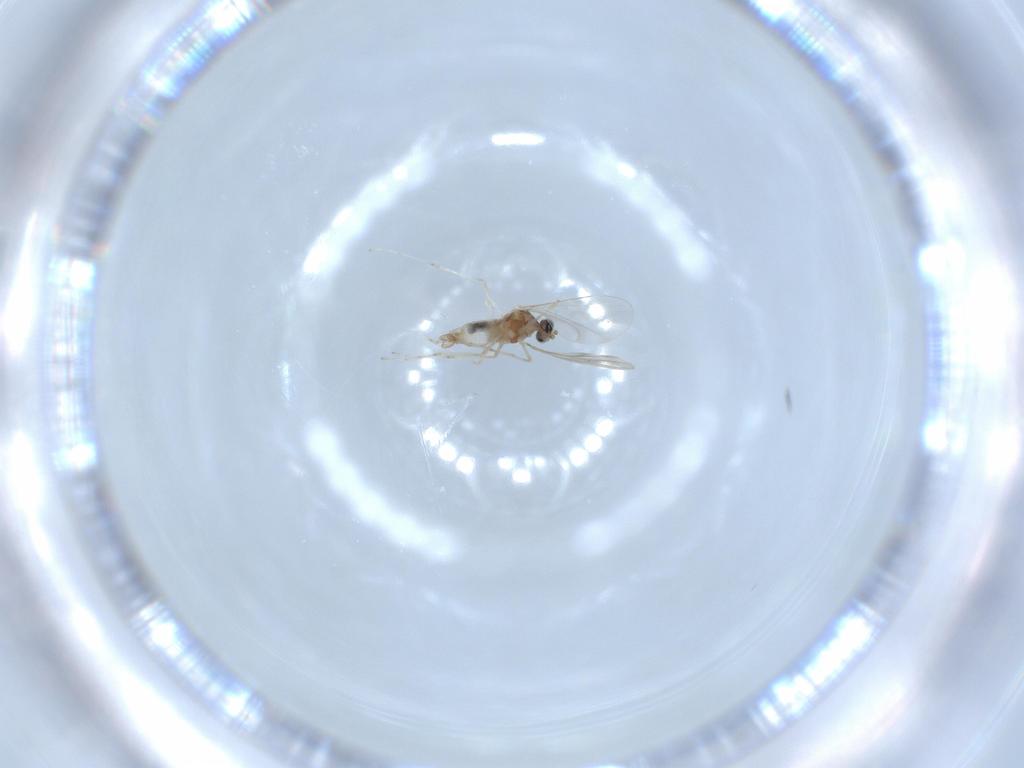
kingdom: Animalia
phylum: Arthropoda
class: Insecta
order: Diptera
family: Cecidomyiidae
